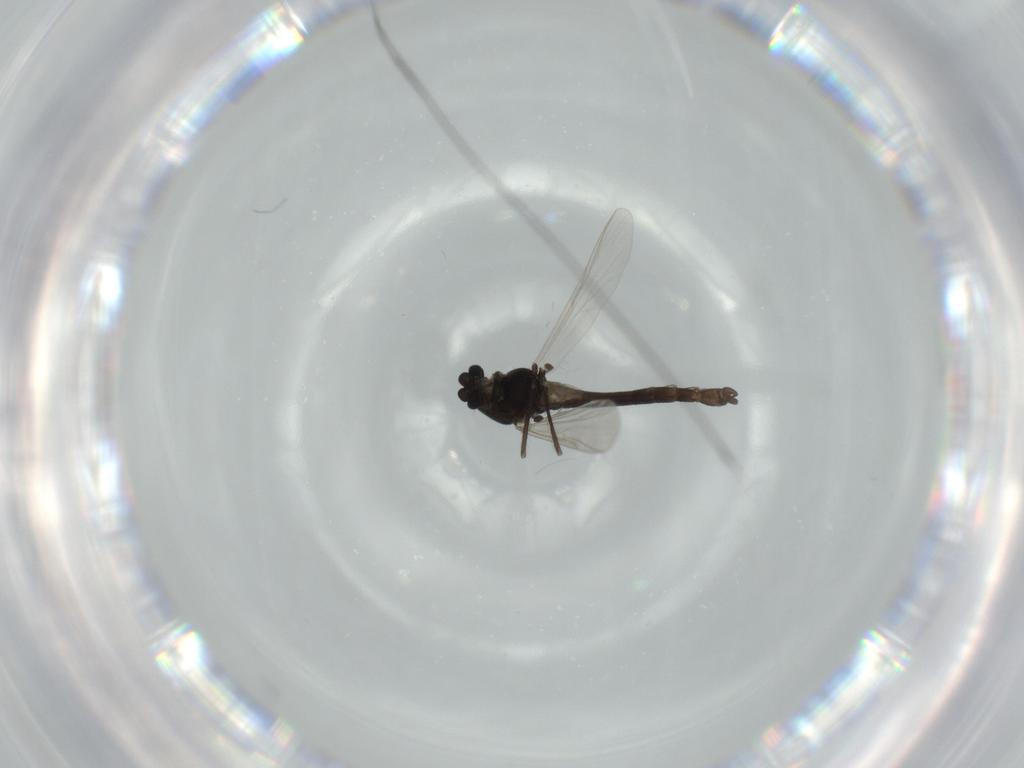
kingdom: Animalia
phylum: Arthropoda
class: Insecta
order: Diptera
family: Chironomidae
